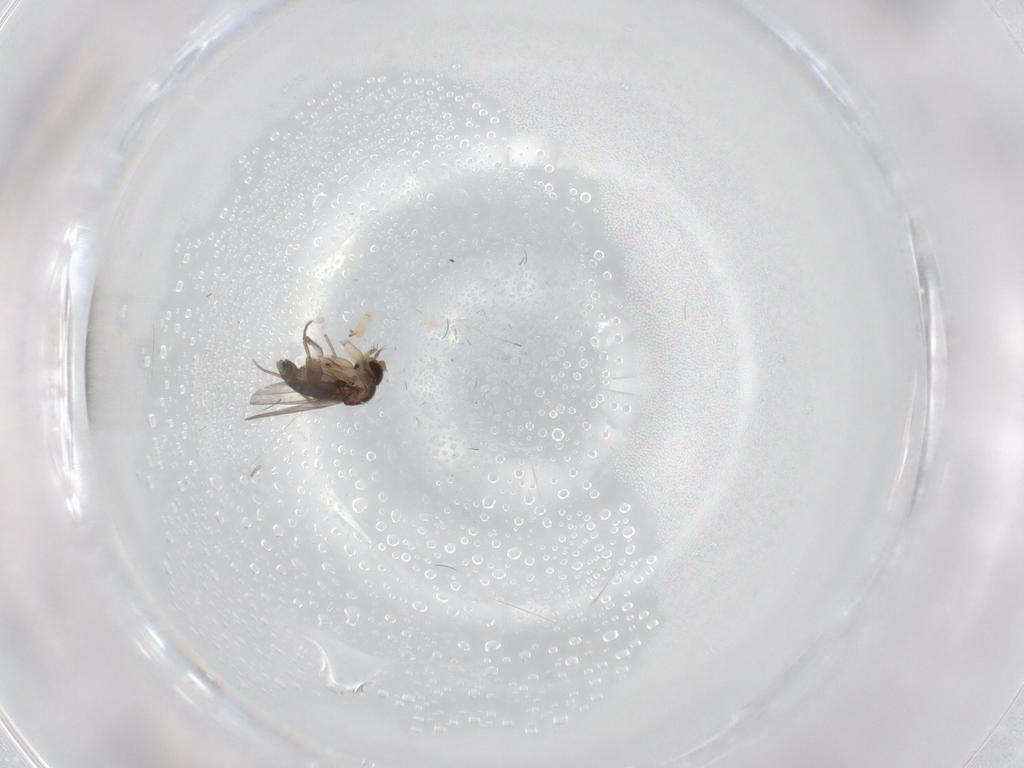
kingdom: Animalia
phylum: Arthropoda
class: Insecta
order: Diptera
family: Phoridae
